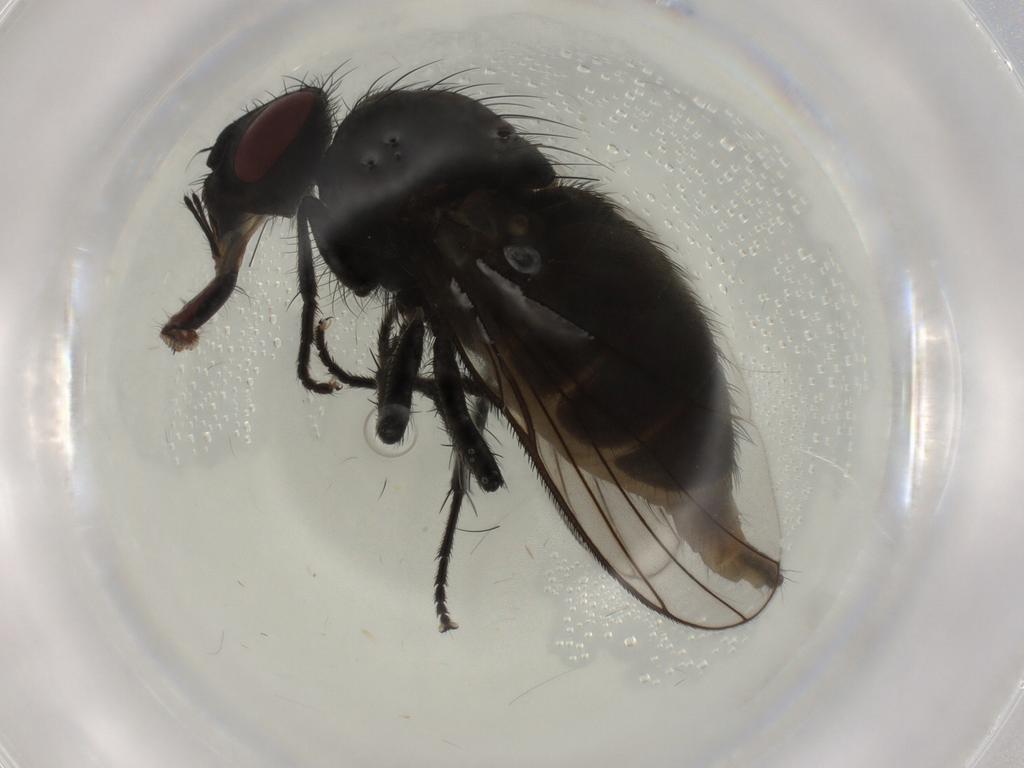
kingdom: Animalia
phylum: Arthropoda
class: Insecta
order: Diptera
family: Muscidae
